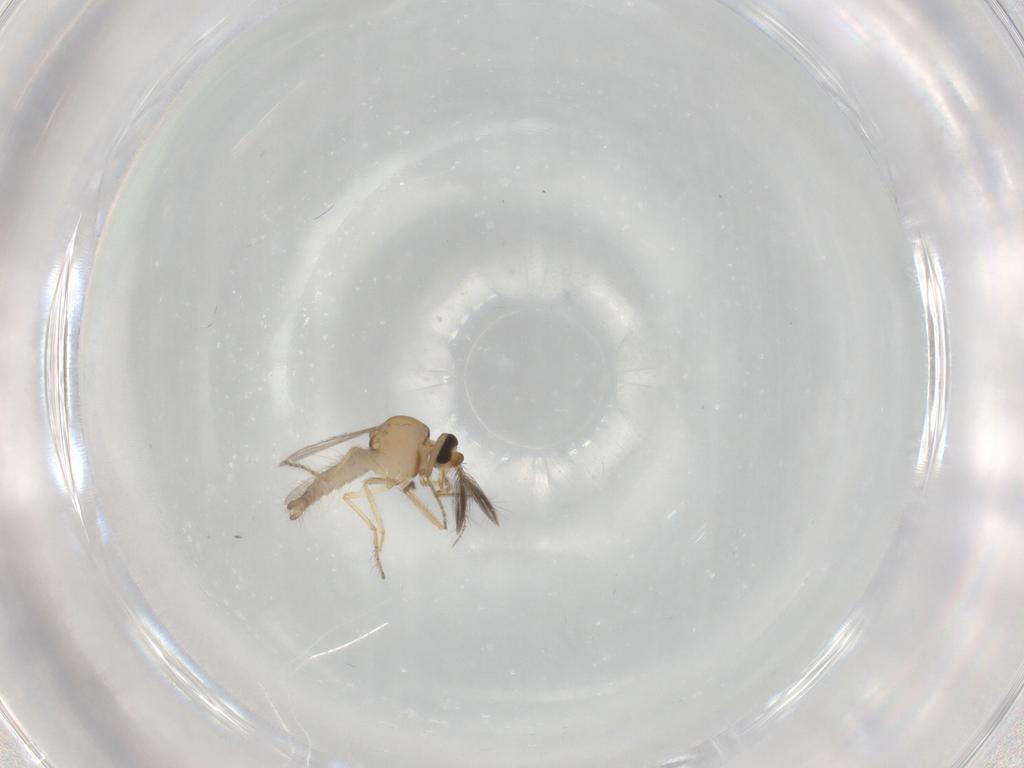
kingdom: Animalia
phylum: Arthropoda
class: Insecta
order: Diptera
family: Ceratopogonidae
